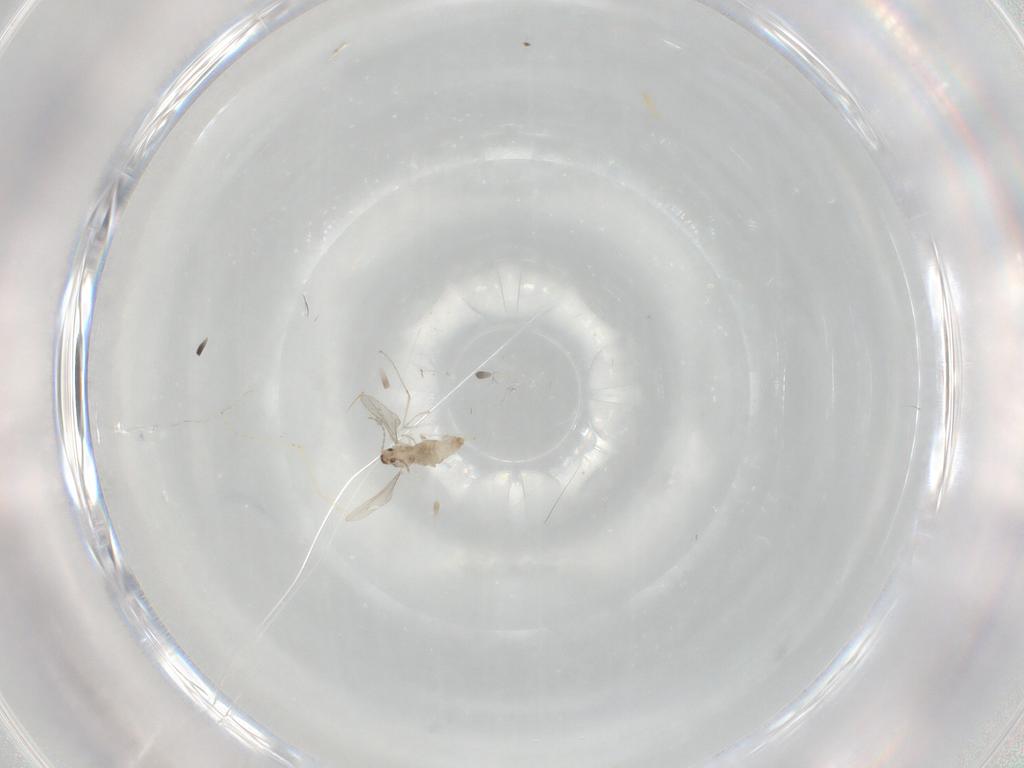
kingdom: Animalia
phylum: Arthropoda
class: Insecta
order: Diptera
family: Cecidomyiidae
